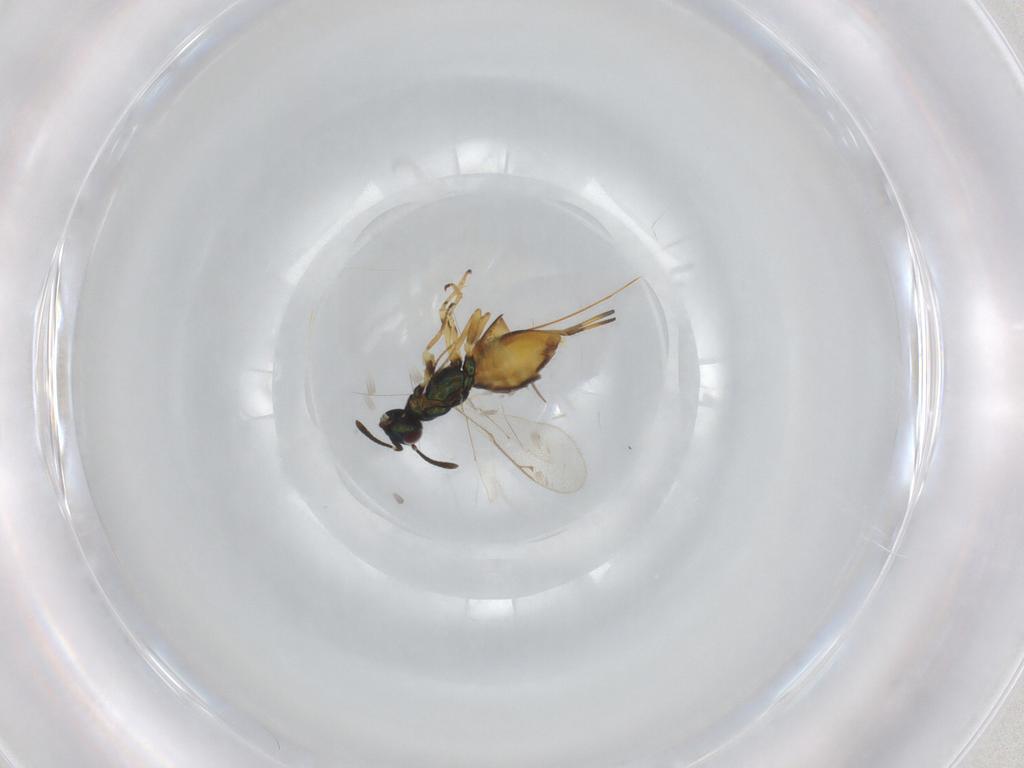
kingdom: Animalia
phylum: Arthropoda
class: Insecta
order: Hymenoptera
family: Eupelmidae
